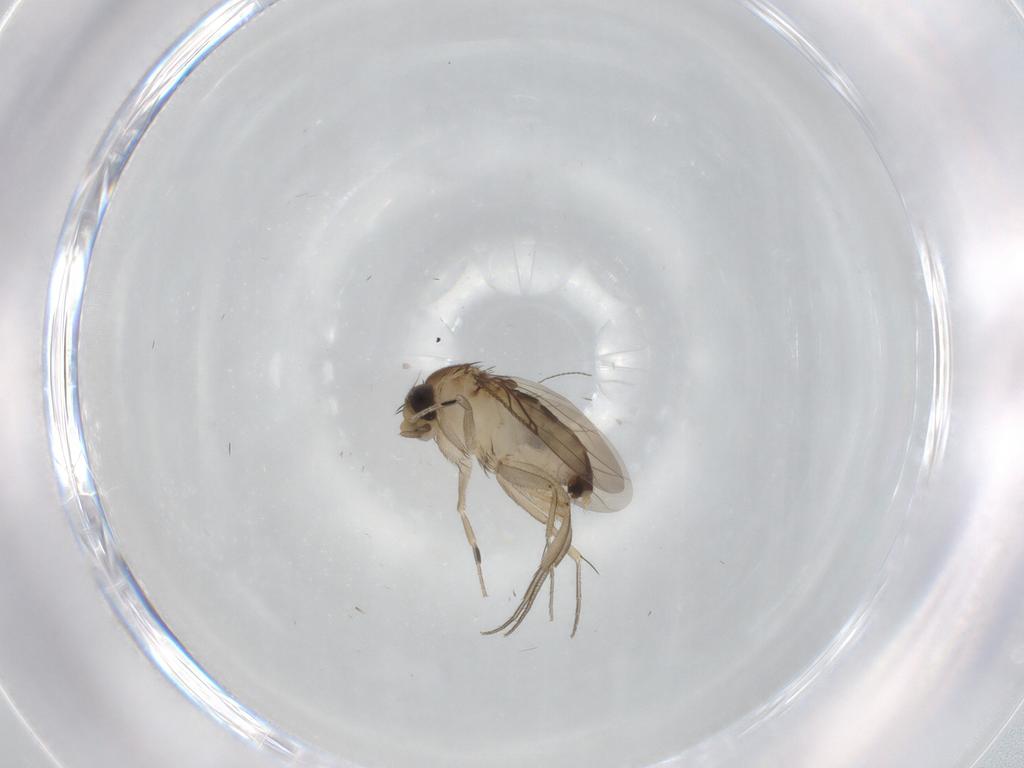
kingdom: Animalia
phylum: Arthropoda
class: Insecta
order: Diptera
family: Phoridae
